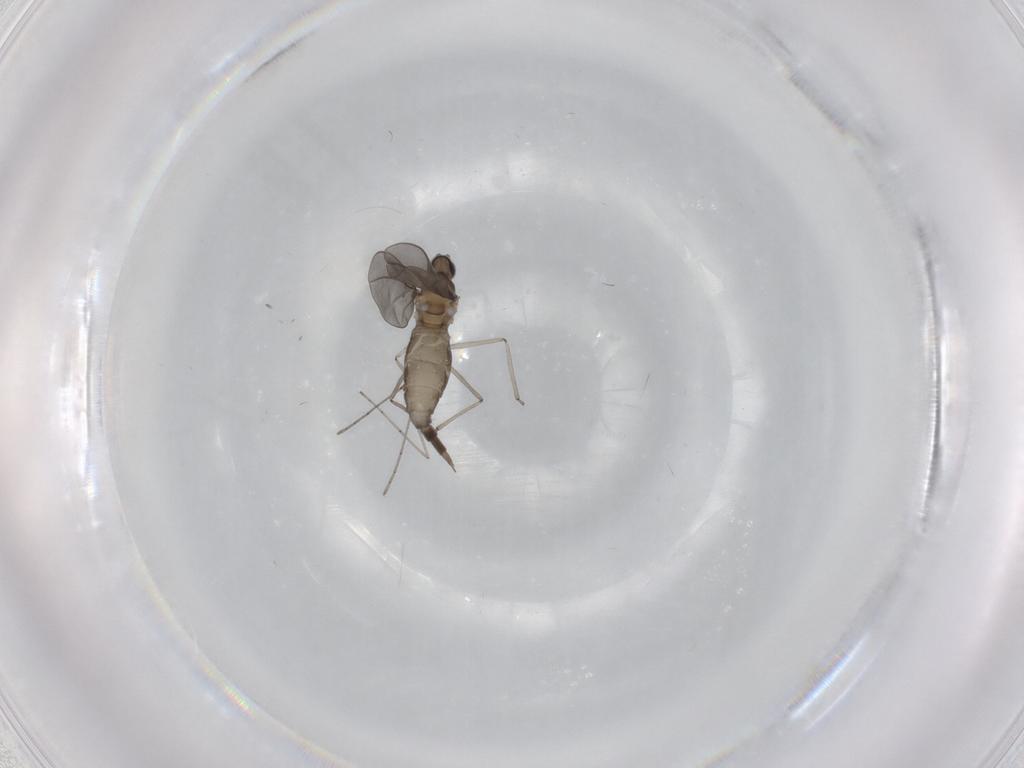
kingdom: Animalia
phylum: Arthropoda
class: Insecta
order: Diptera
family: Cecidomyiidae
